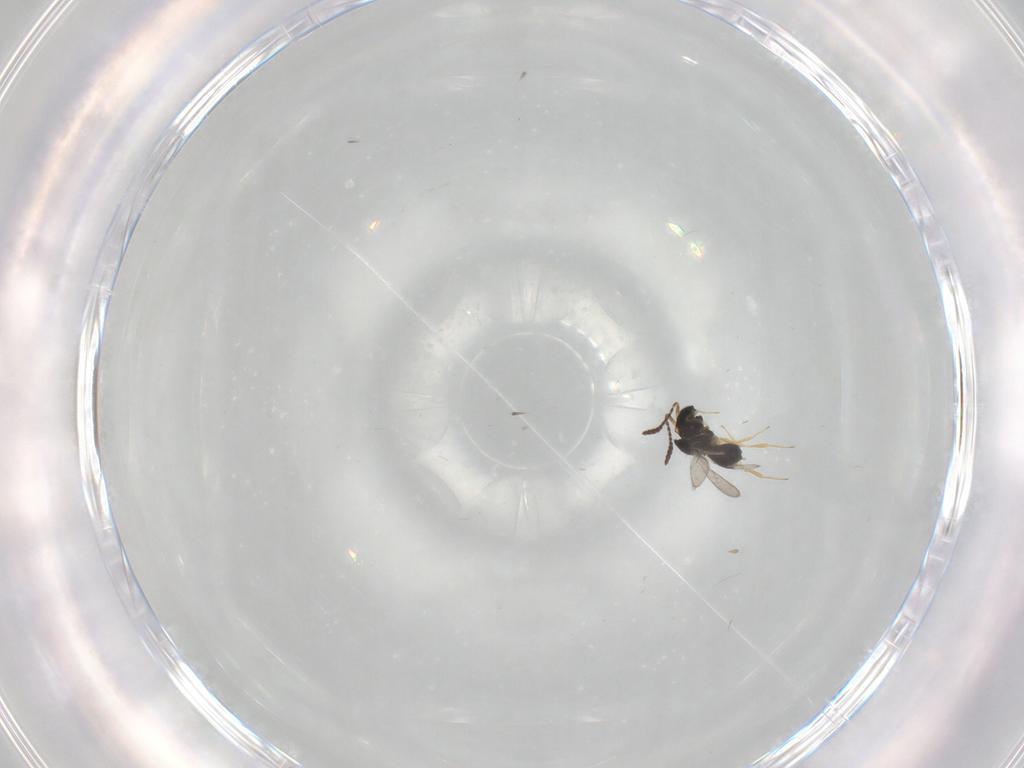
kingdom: Animalia
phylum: Arthropoda
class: Insecta
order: Hymenoptera
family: Scelionidae
